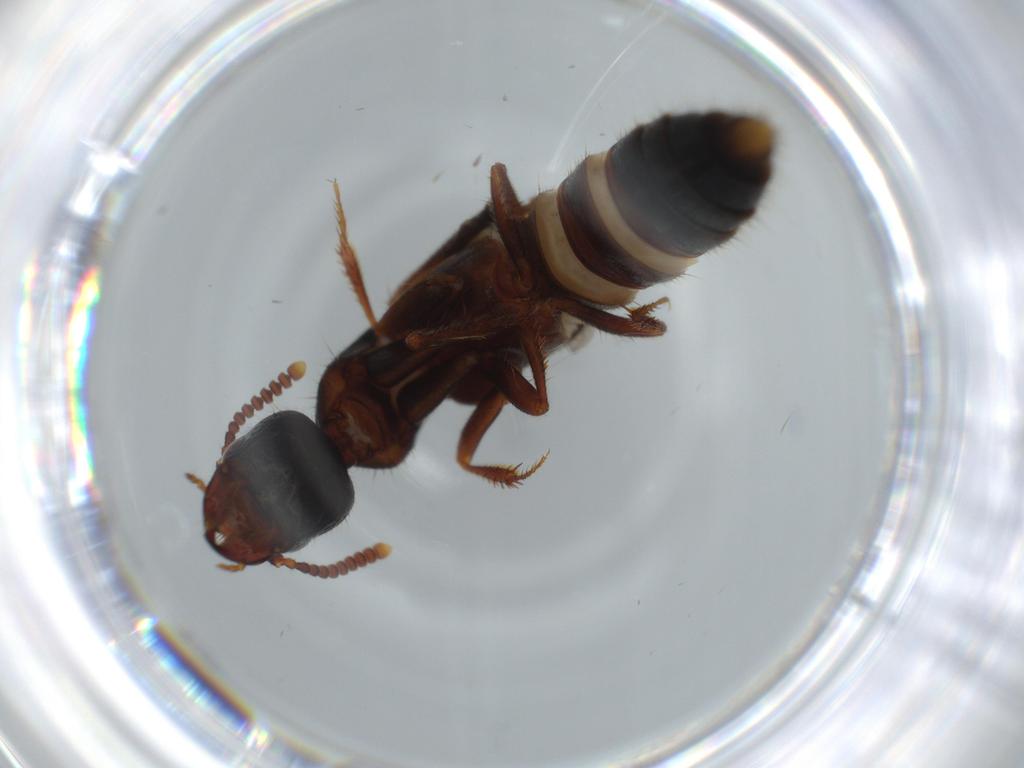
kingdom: Animalia
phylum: Arthropoda
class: Insecta
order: Coleoptera
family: Staphylinidae
